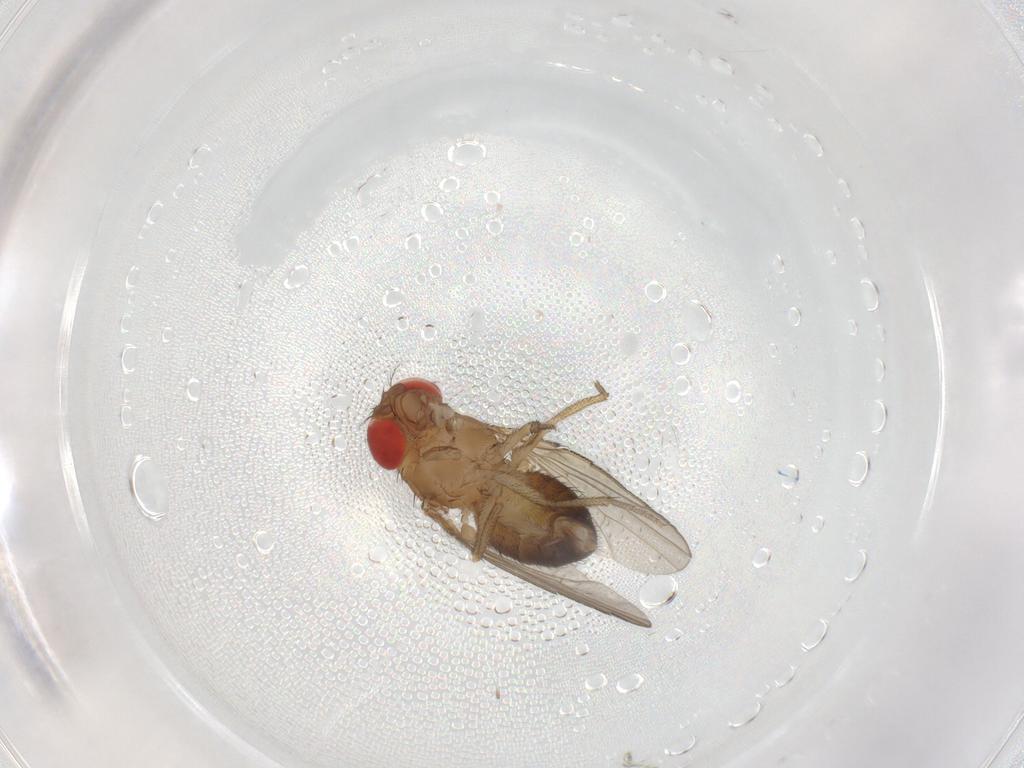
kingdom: Animalia
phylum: Arthropoda
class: Insecta
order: Diptera
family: Drosophilidae
